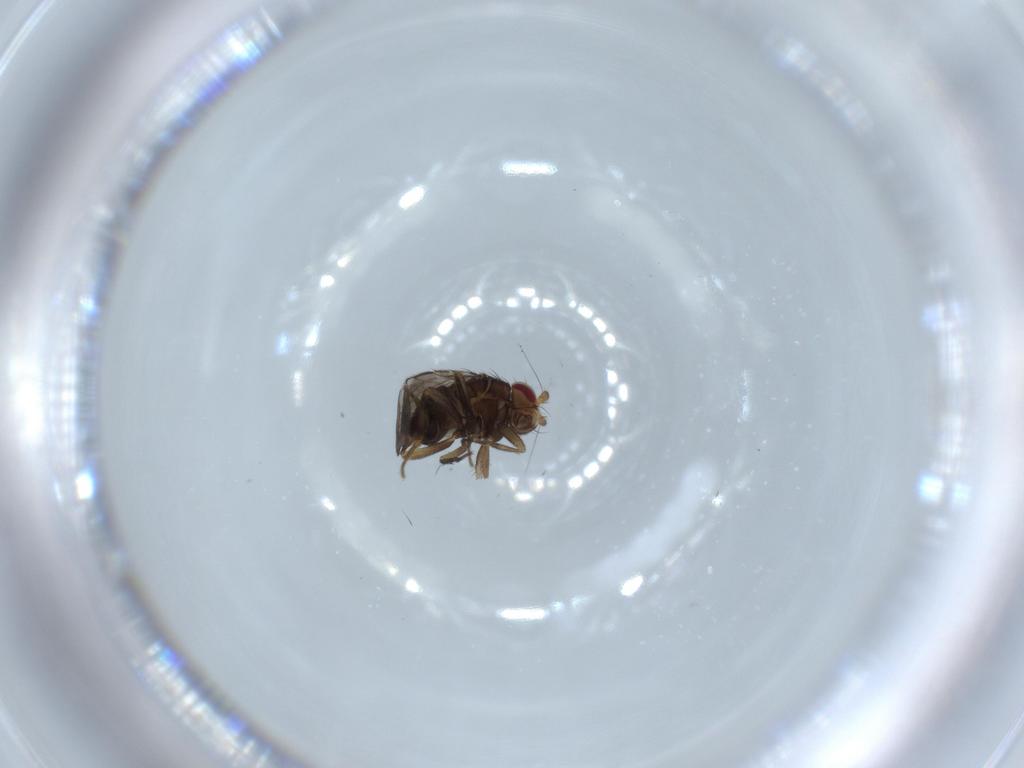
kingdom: Animalia
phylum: Arthropoda
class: Insecta
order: Diptera
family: Sphaeroceridae
